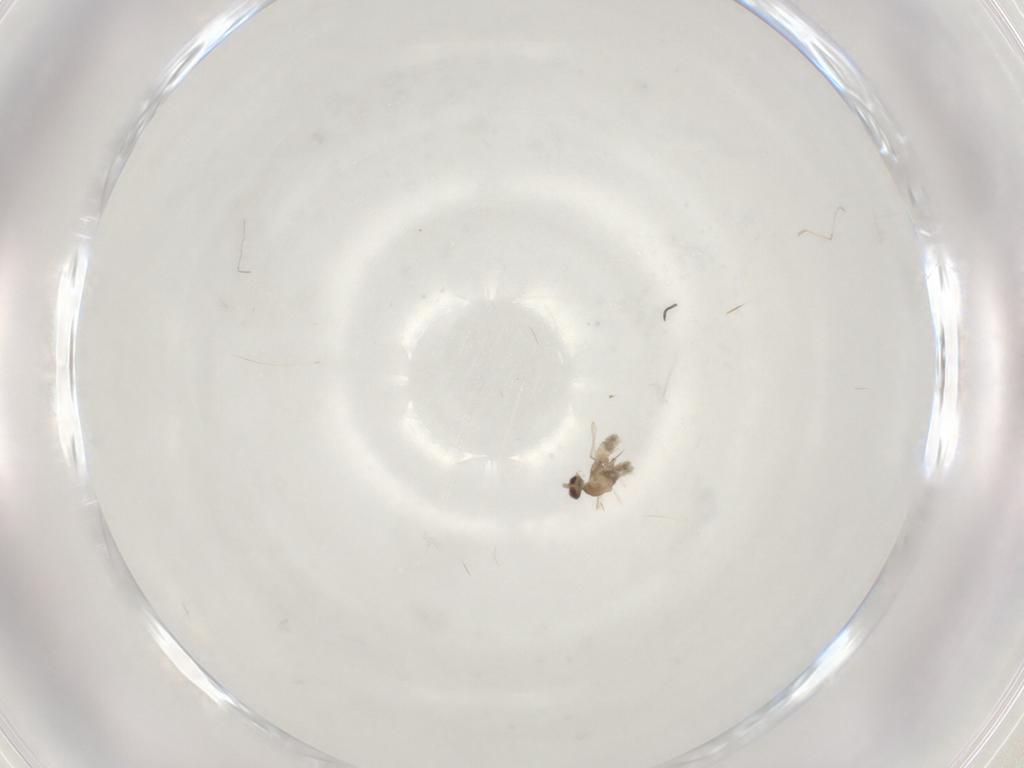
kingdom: Animalia
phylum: Arthropoda
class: Insecta
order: Diptera
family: Cecidomyiidae
